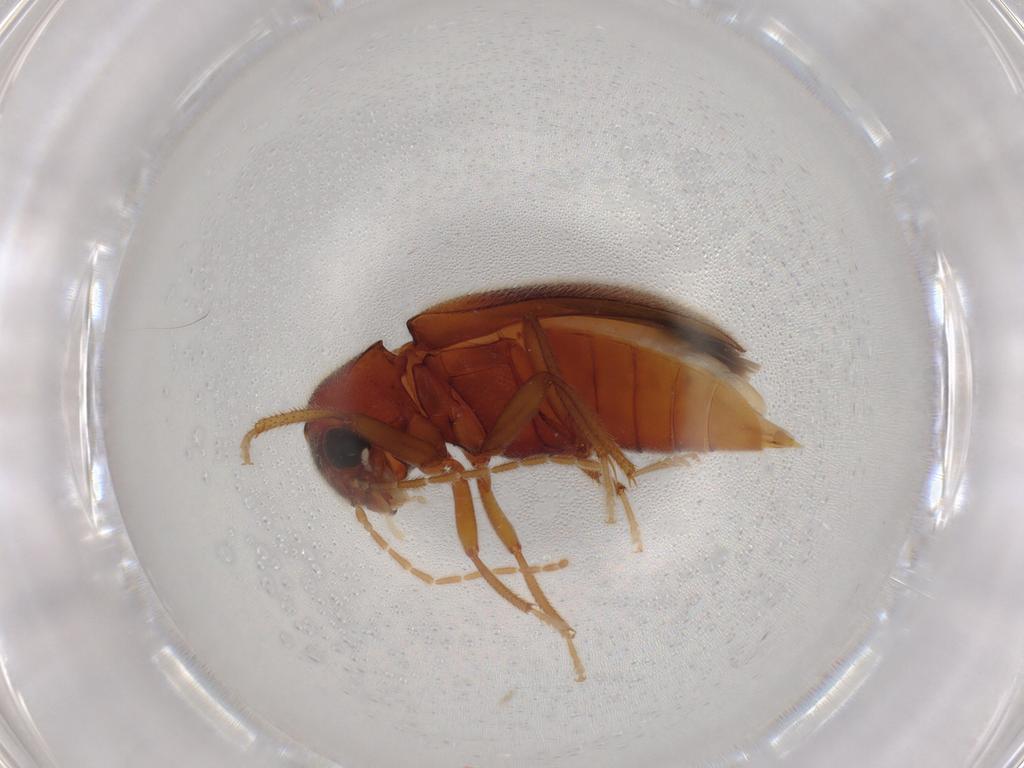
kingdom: Animalia
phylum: Arthropoda
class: Insecta
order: Coleoptera
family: Ptilodactylidae
